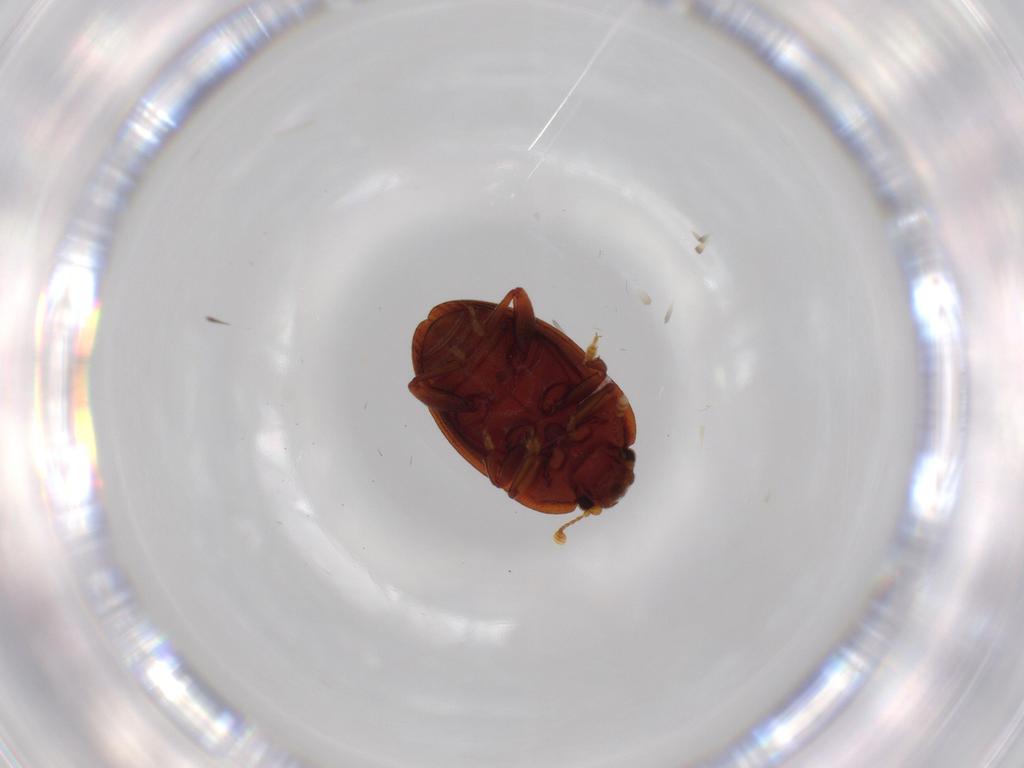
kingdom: Animalia
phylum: Arthropoda
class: Insecta
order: Coleoptera
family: Nitidulidae
